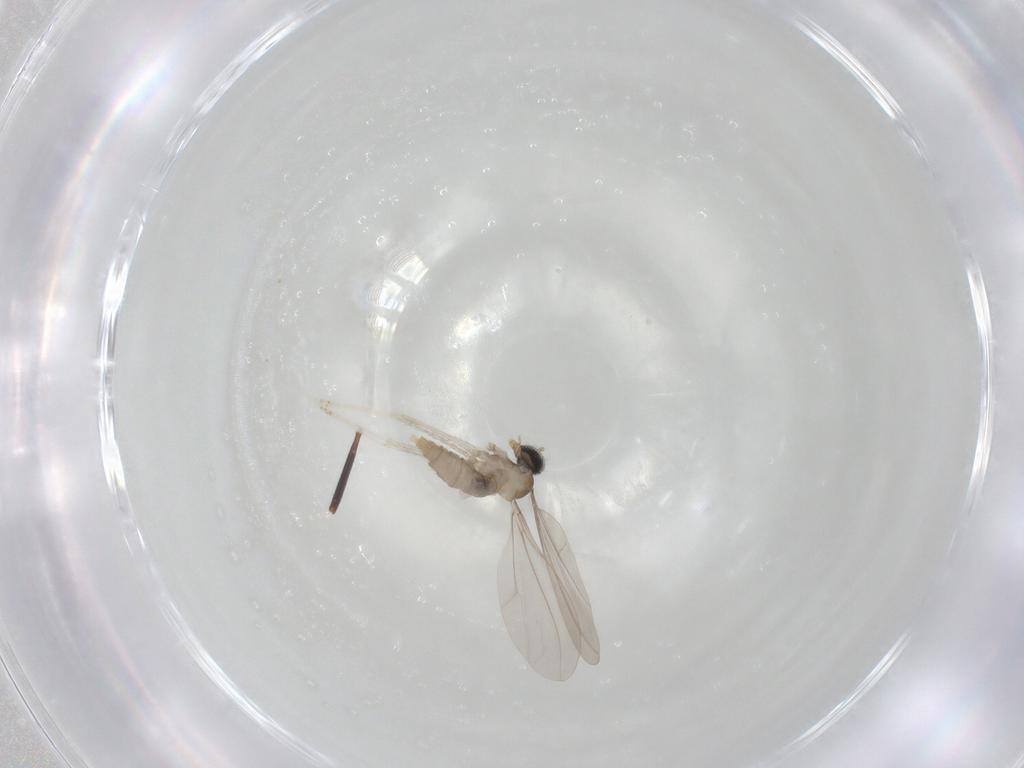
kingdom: Animalia
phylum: Arthropoda
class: Insecta
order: Diptera
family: Cecidomyiidae
